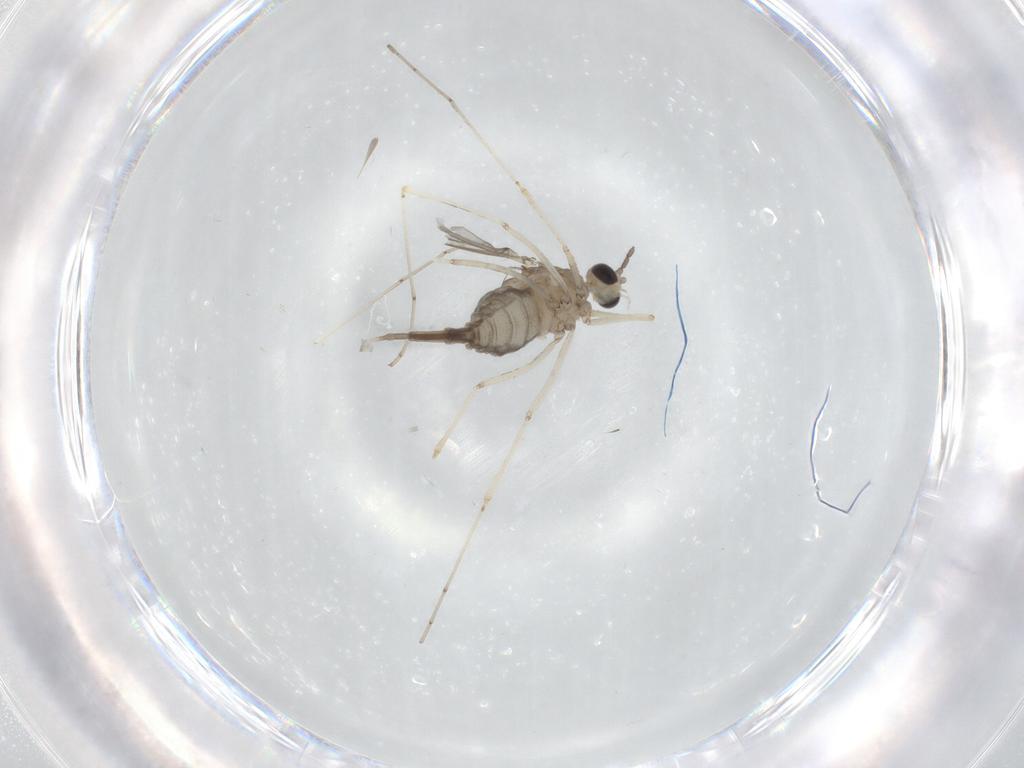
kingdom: Animalia
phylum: Arthropoda
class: Insecta
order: Diptera
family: Cecidomyiidae
